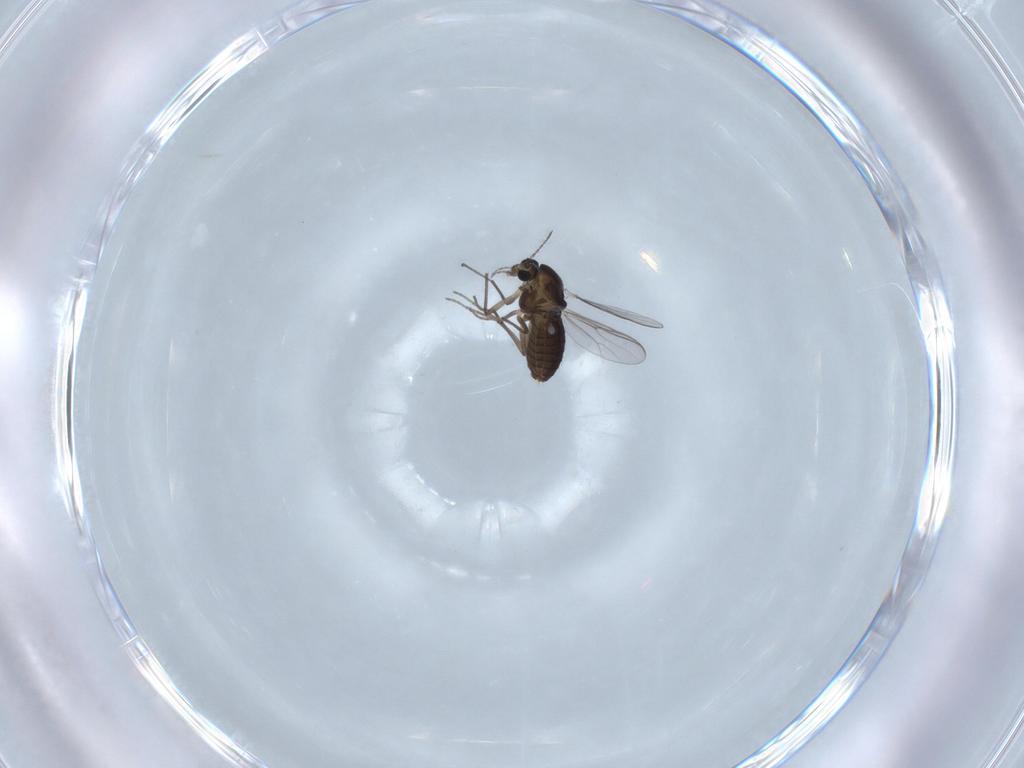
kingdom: Animalia
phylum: Arthropoda
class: Insecta
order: Diptera
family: Chironomidae
